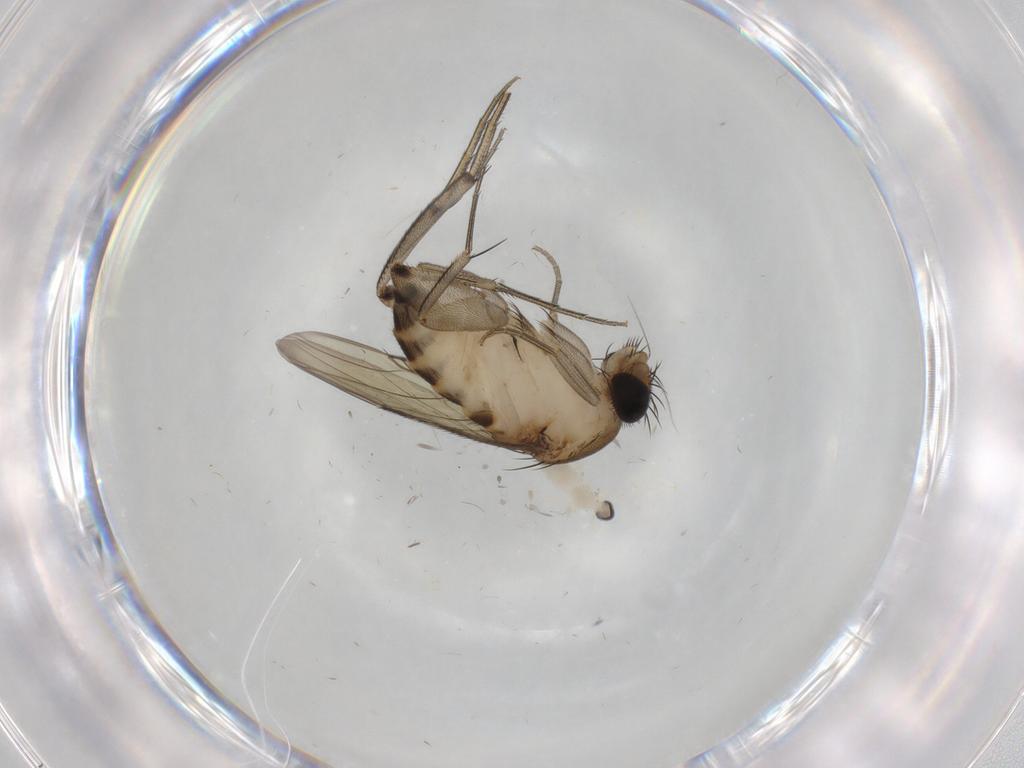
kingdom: Animalia
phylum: Arthropoda
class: Insecta
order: Diptera
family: Phoridae
